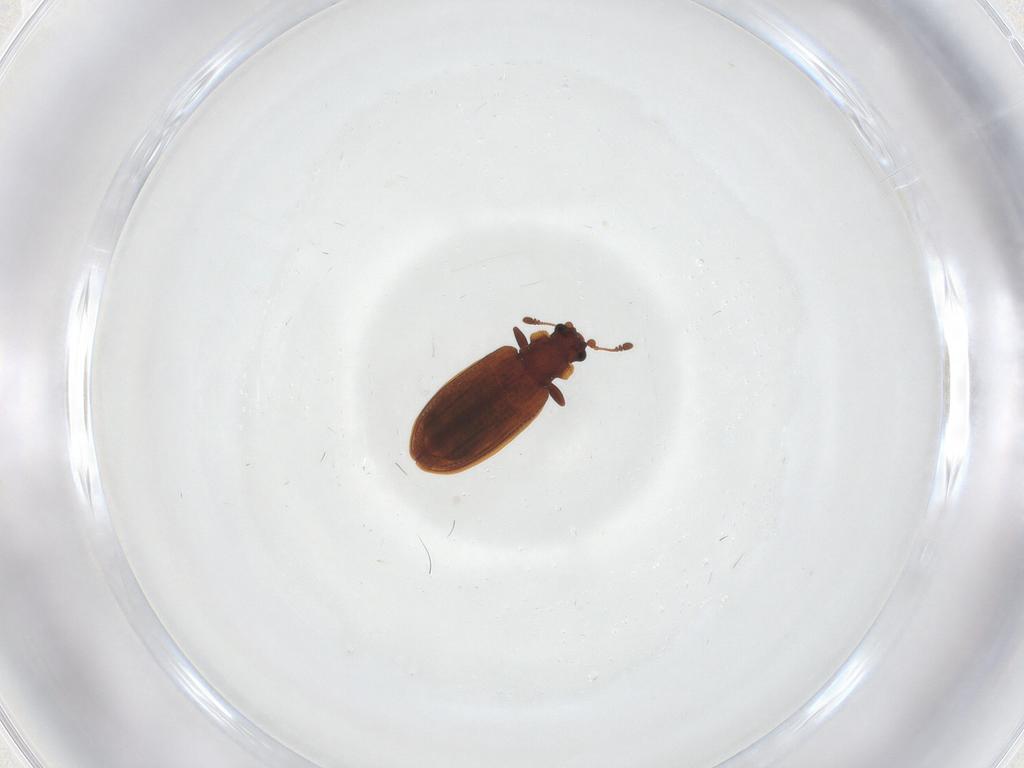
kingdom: Animalia
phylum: Arthropoda
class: Insecta
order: Coleoptera
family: Latridiidae
